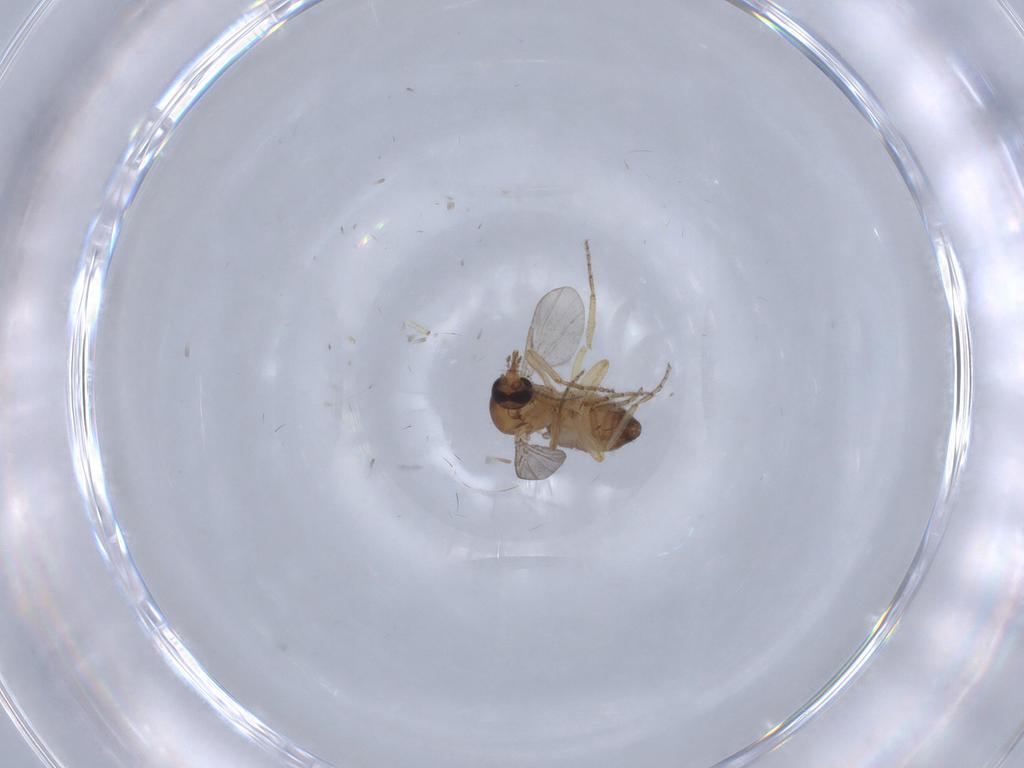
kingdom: Animalia
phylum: Arthropoda
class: Insecta
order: Diptera
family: Ceratopogonidae
